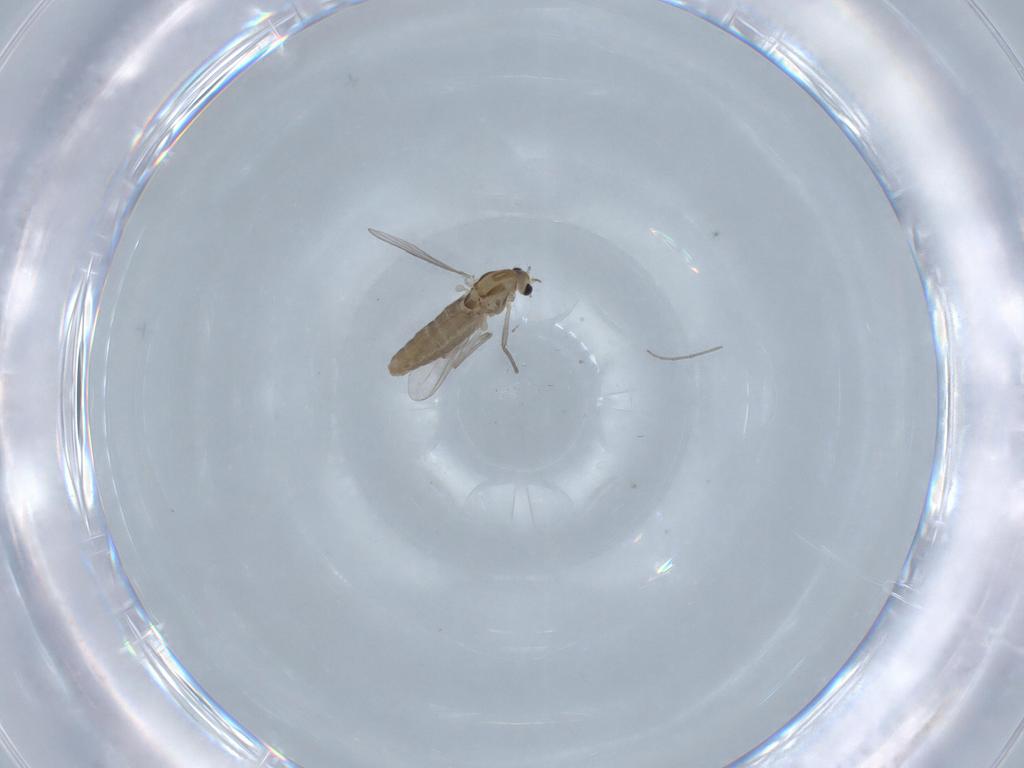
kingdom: Animalia
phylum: Arthropoda
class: Insecta
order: Diptera
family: Chironomidae
